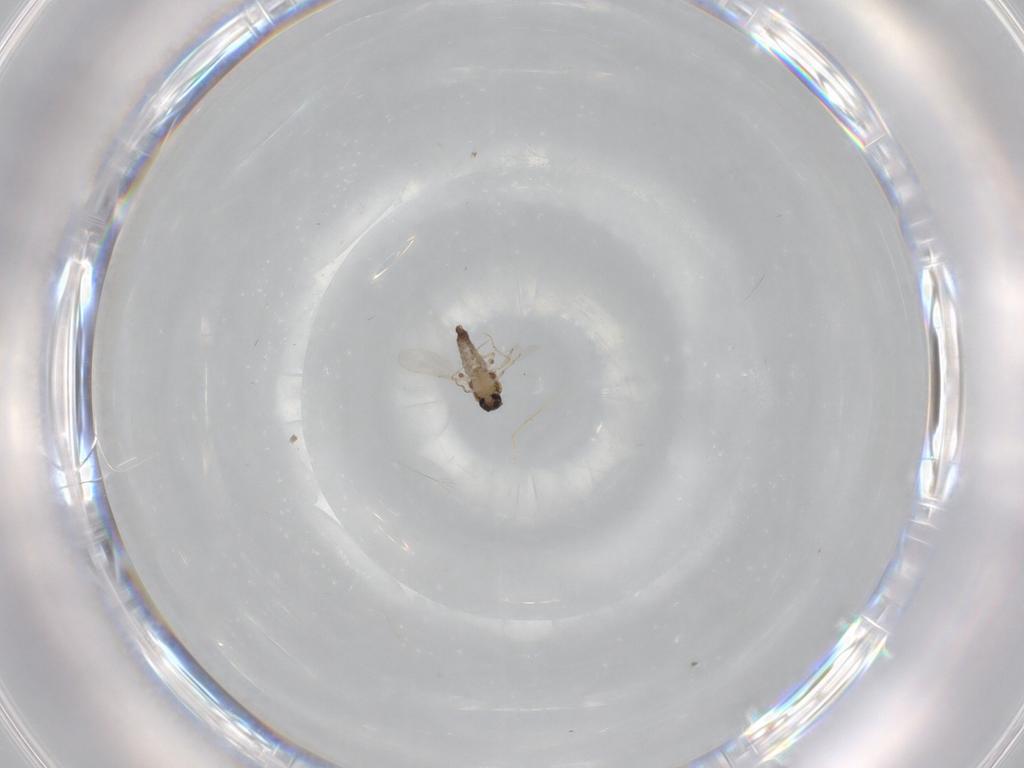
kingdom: Animalia
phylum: Arthropoda
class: Insecta
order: Diptera
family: Ceratopogonidae
